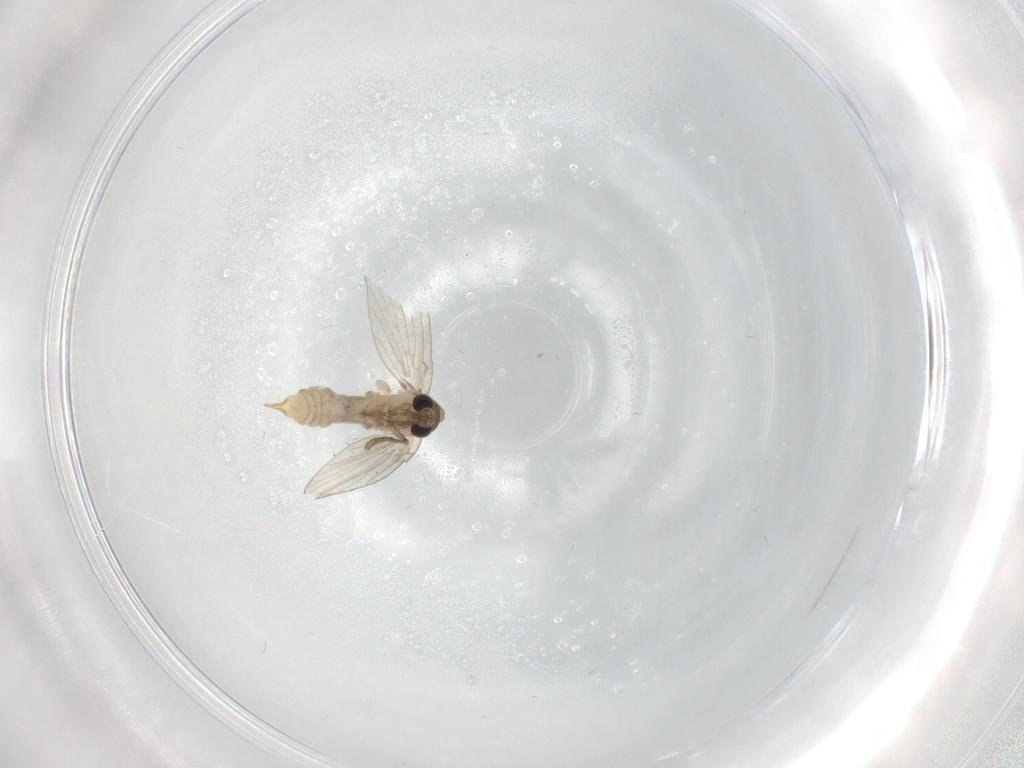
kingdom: Animalia
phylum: Arthropoda
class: Insecta
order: Diptera
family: Psychodidae
